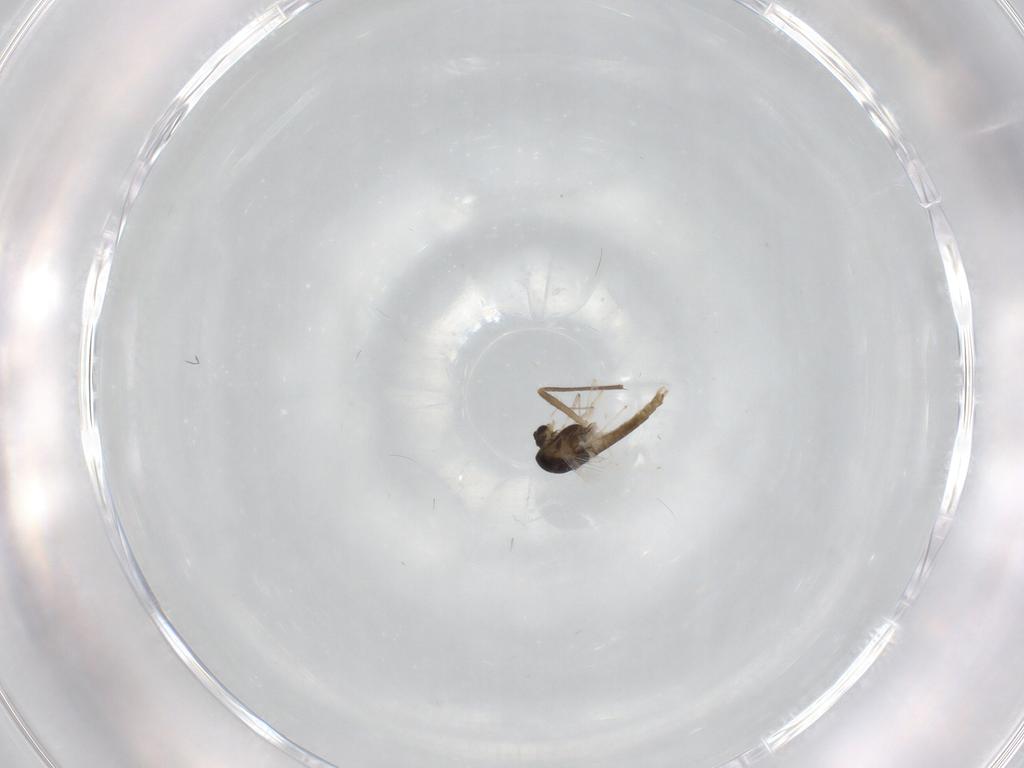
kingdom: Animalia
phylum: Arthropoda
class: Insecta
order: Diptera
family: Chironomidae
